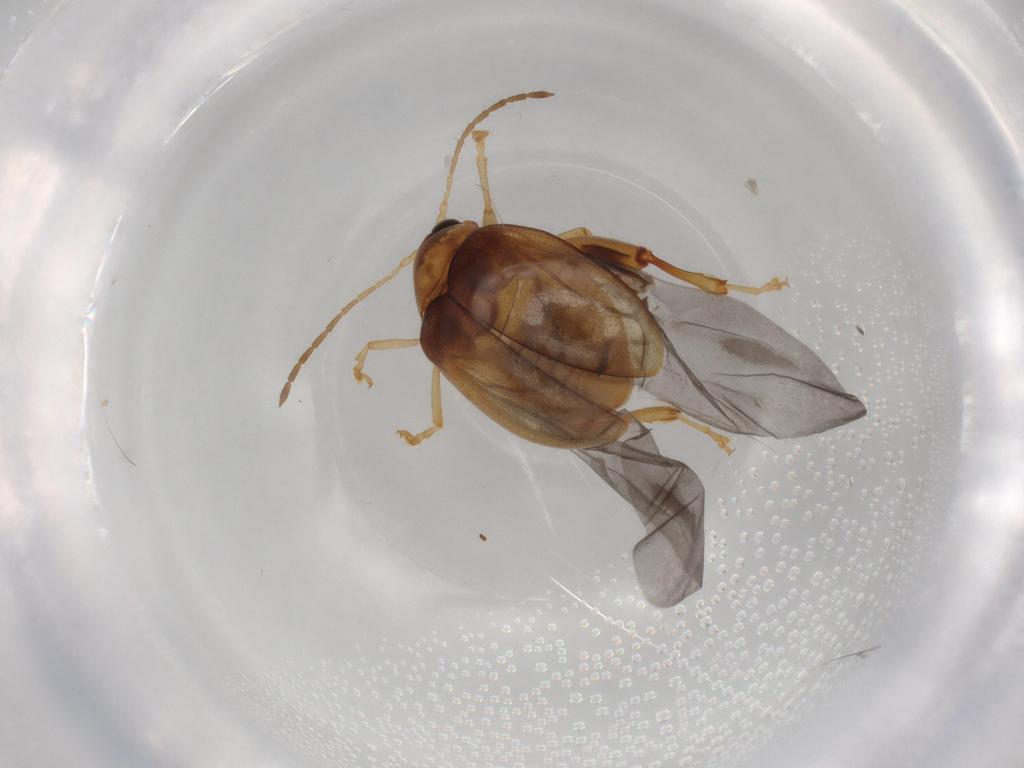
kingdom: Animalia
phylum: Arthropoda
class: Insecta
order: Coleoptera
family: Chrysomelidae
